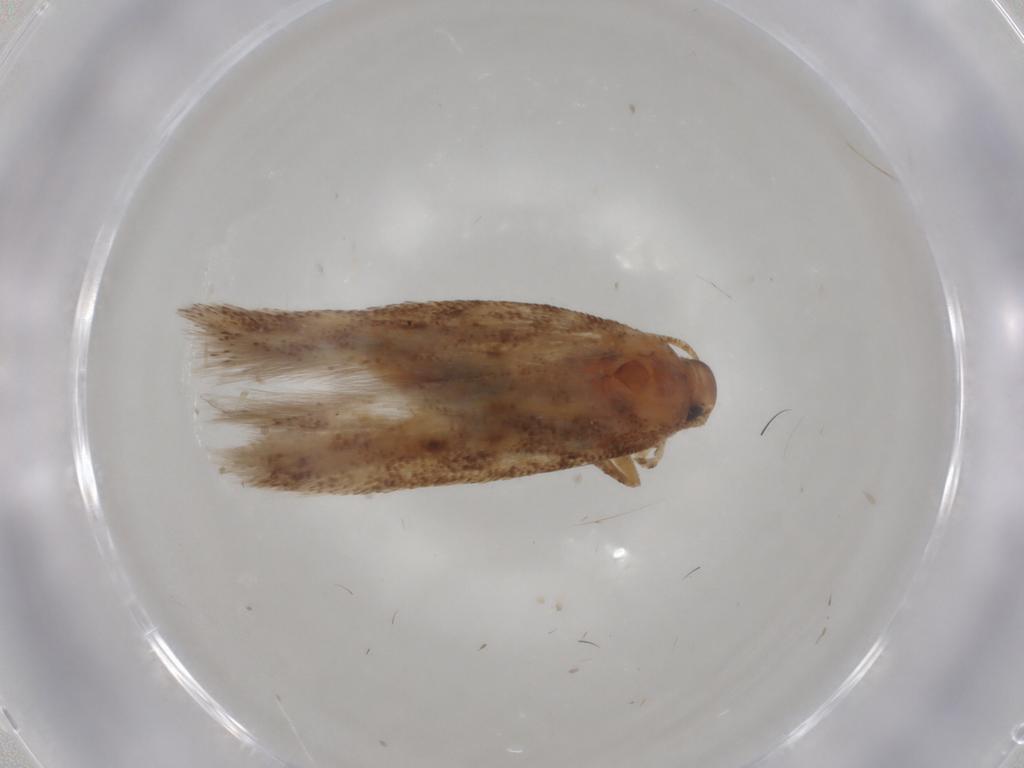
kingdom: Animalia
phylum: Arthropoda
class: Insecta
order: Lepidoptera
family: Gelechiidae
